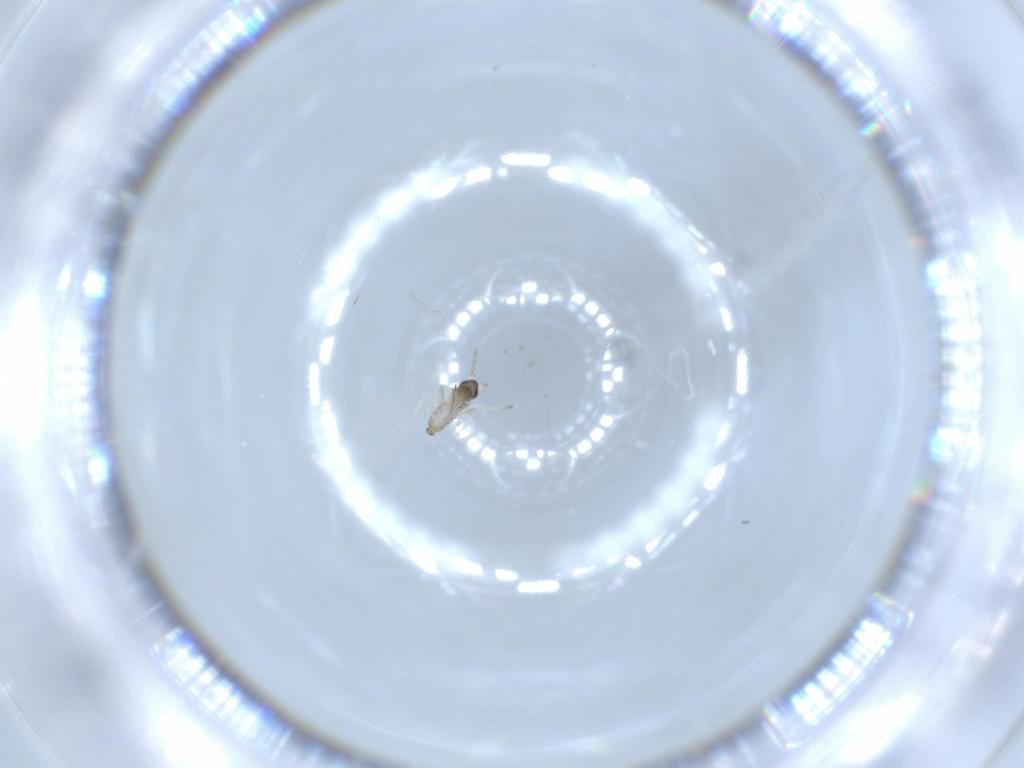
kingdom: Animalia
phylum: Arthropoda
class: Insecta
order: Diptera
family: Cecidomyiidae
